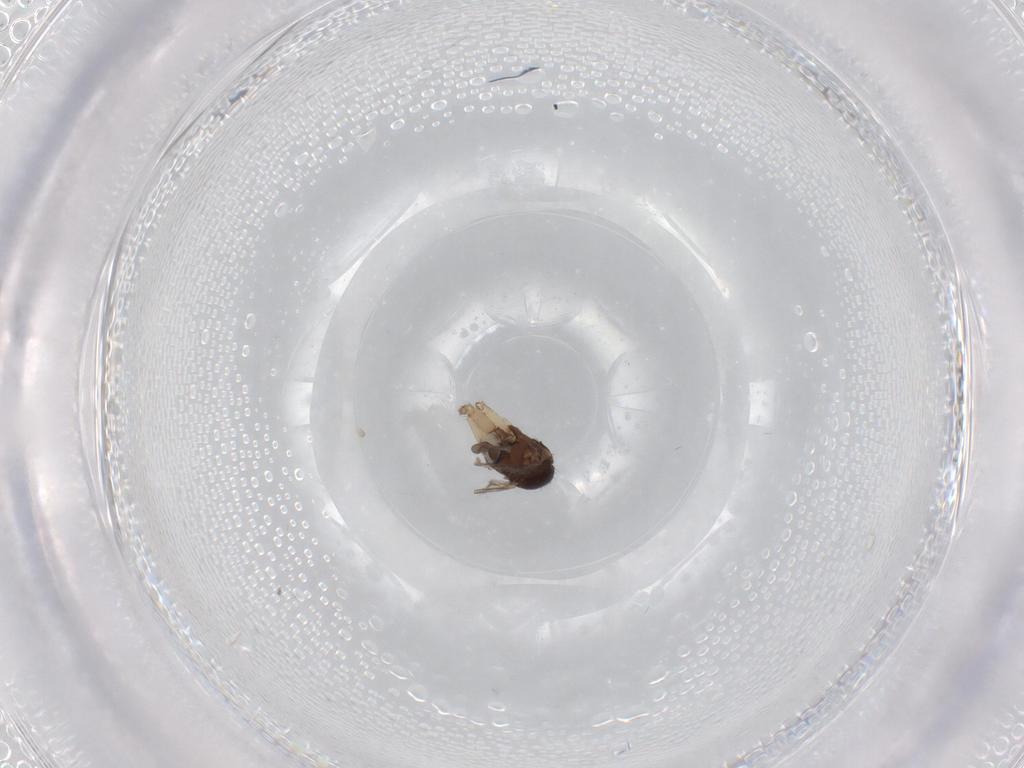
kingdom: Animalia
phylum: Arthropoda
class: Insecta
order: Diptera
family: Sciaridae
